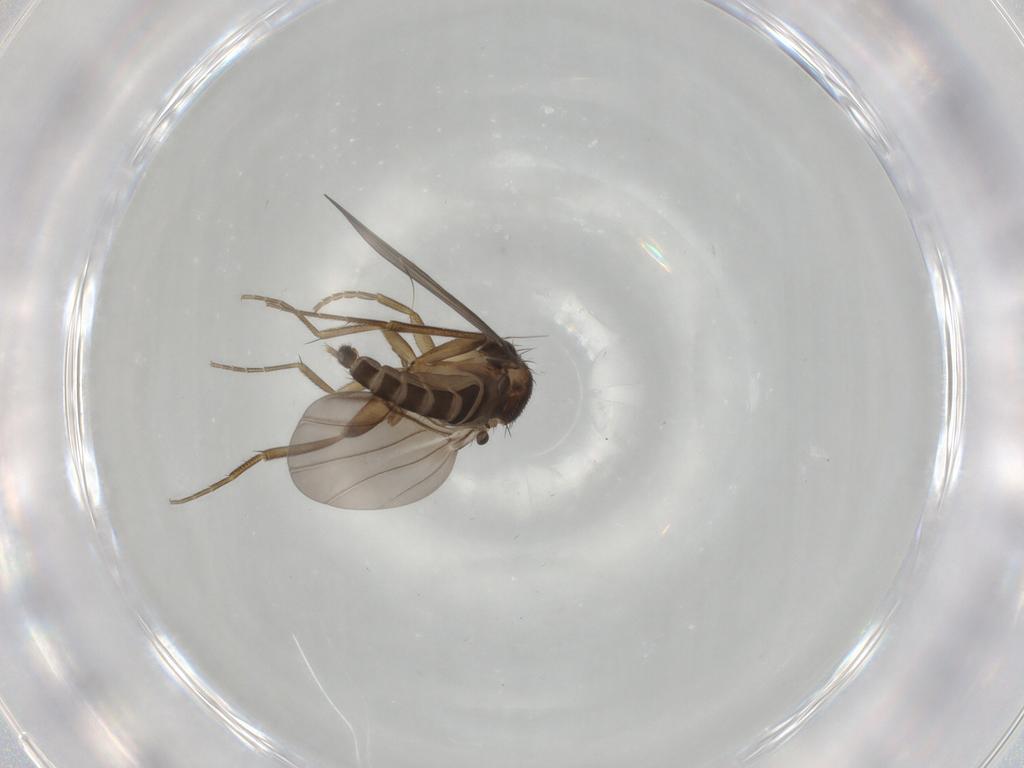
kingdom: Animalia
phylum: Arthropoda
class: Insecta
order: Diptera
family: Phoridae
